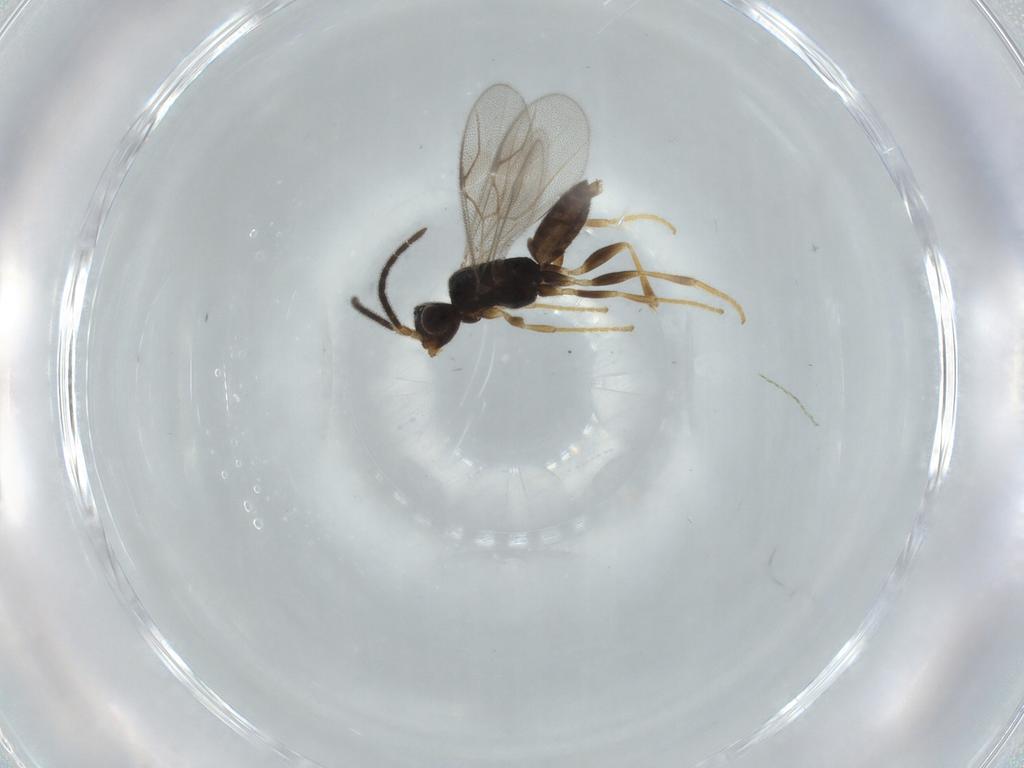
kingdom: Animalia
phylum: Arthropoda
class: Insecta
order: Hymenoptera
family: Dryinidae
